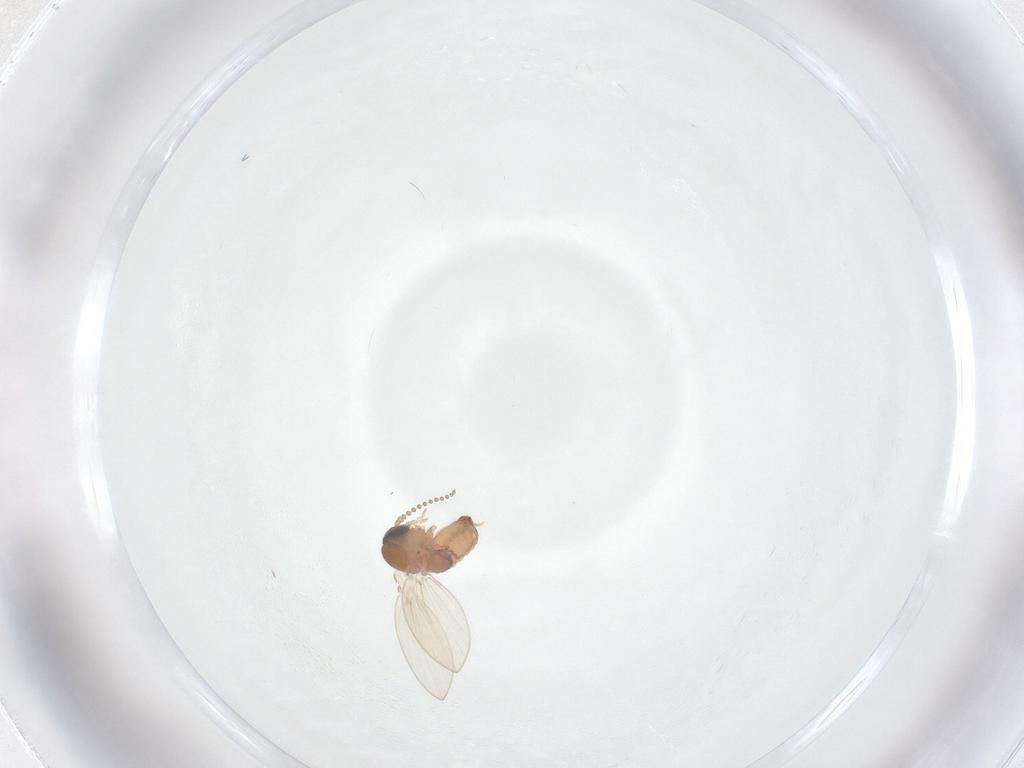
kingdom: Animalia
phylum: Arthropoda
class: Insecta
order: Diptera
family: Psychodidae
